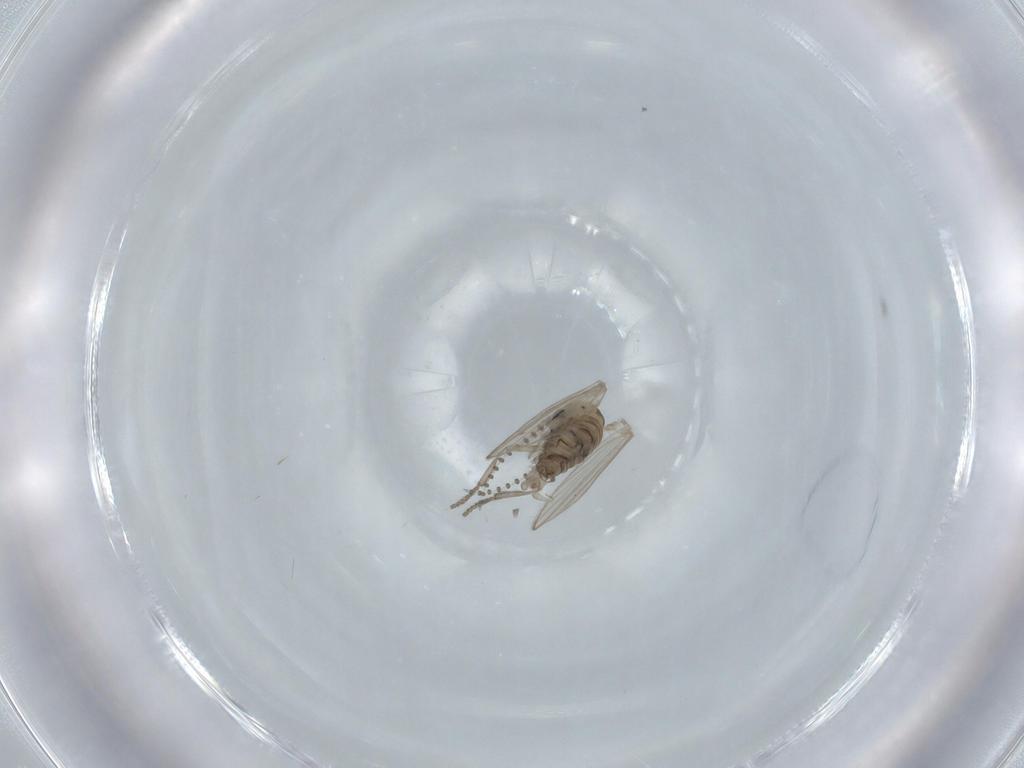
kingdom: Animalia
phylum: Arthropoda
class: Insecta
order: Diptera
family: Psychodidae
